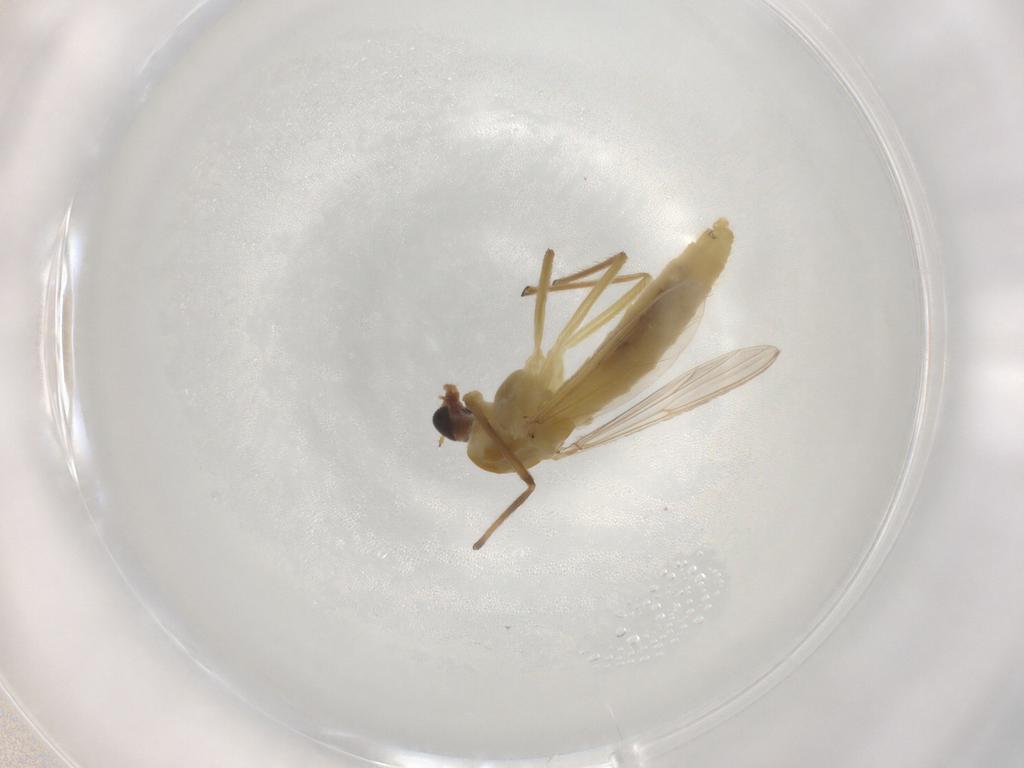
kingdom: Animalia
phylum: Arthropoda
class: Insecta
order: Diptera
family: Chironomidae
